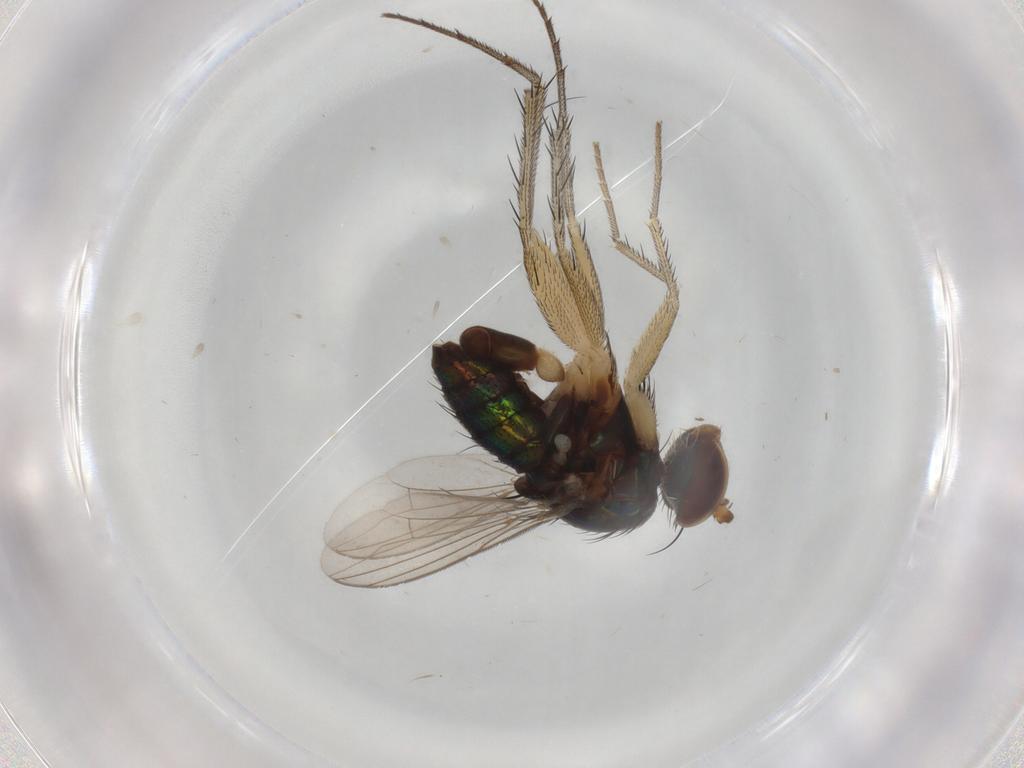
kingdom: Animalia
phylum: Arthropoda
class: Insecta
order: Diptera
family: Dolichopodidae
